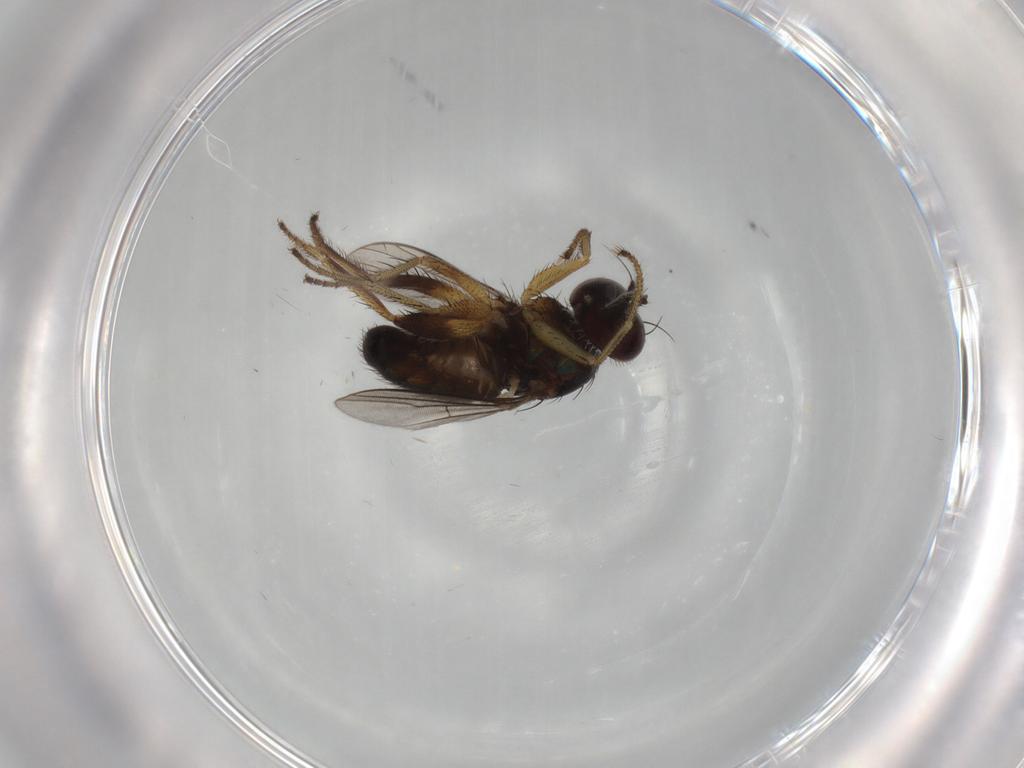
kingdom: Animalia
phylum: Arthropoda
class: Insecta
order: Diptera
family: Dolichopodidae
